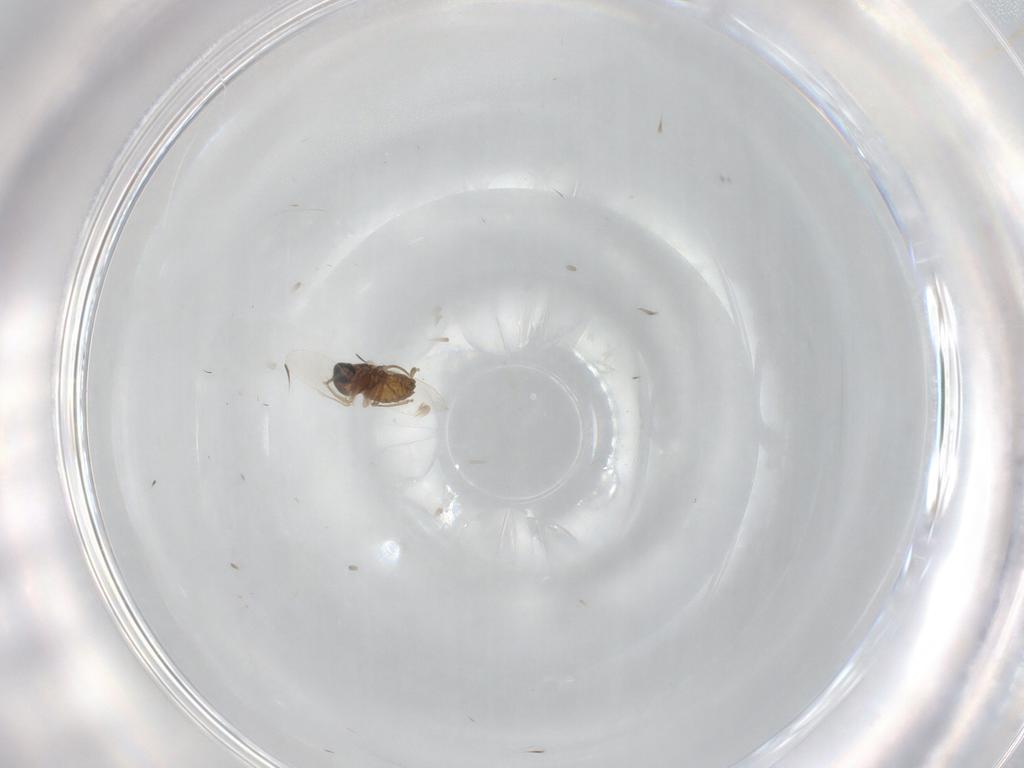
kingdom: Animalia
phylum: Arthropoda
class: Insecta
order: Diptera
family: Cecidomyiidae
